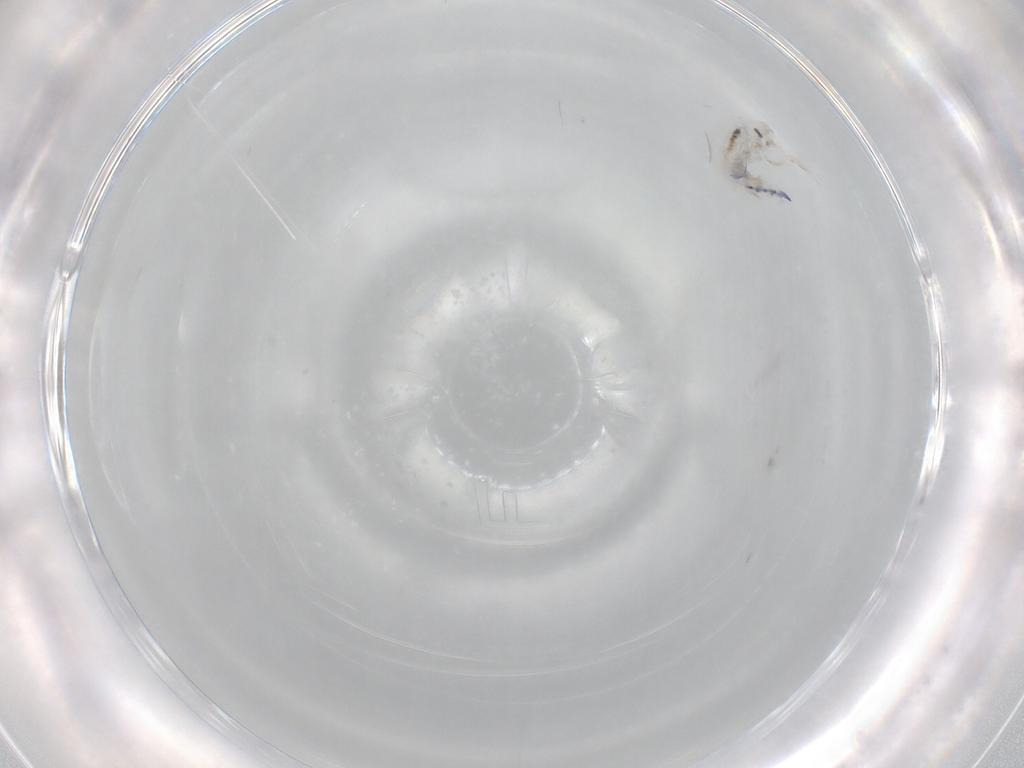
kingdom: Animalia
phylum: Arthropoda
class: Collembola
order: Entomobryomorpha
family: Entomobryidae
